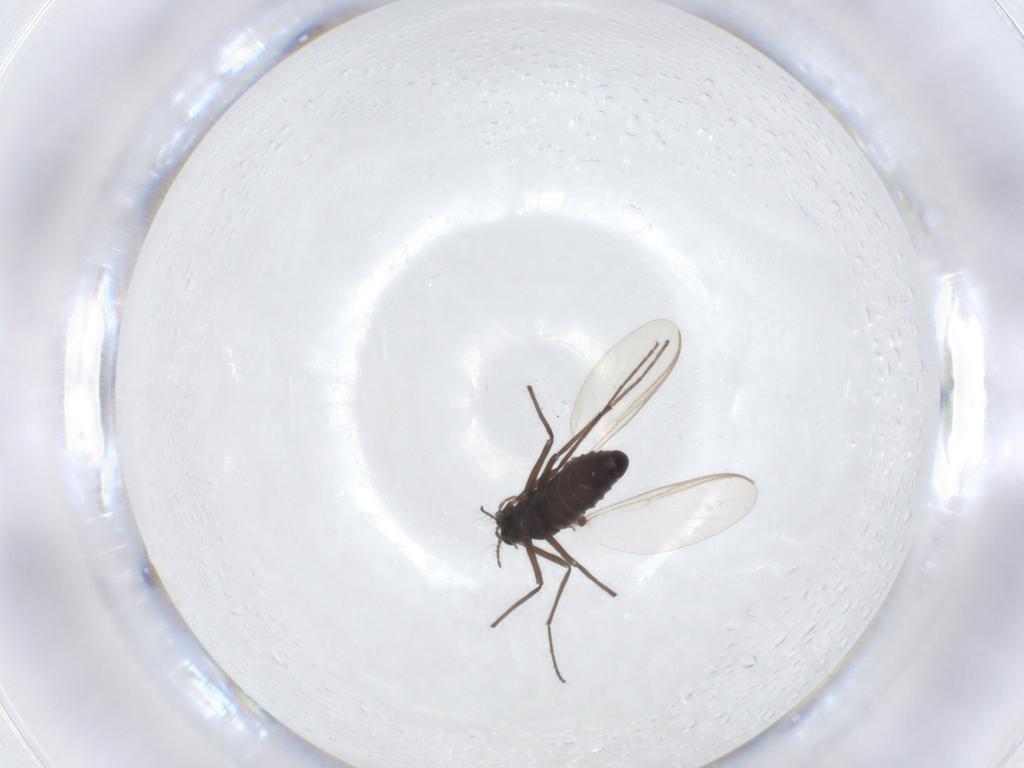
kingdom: Animalia
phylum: Arthropoda
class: Insecta
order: Diptera
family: Chironomidae
